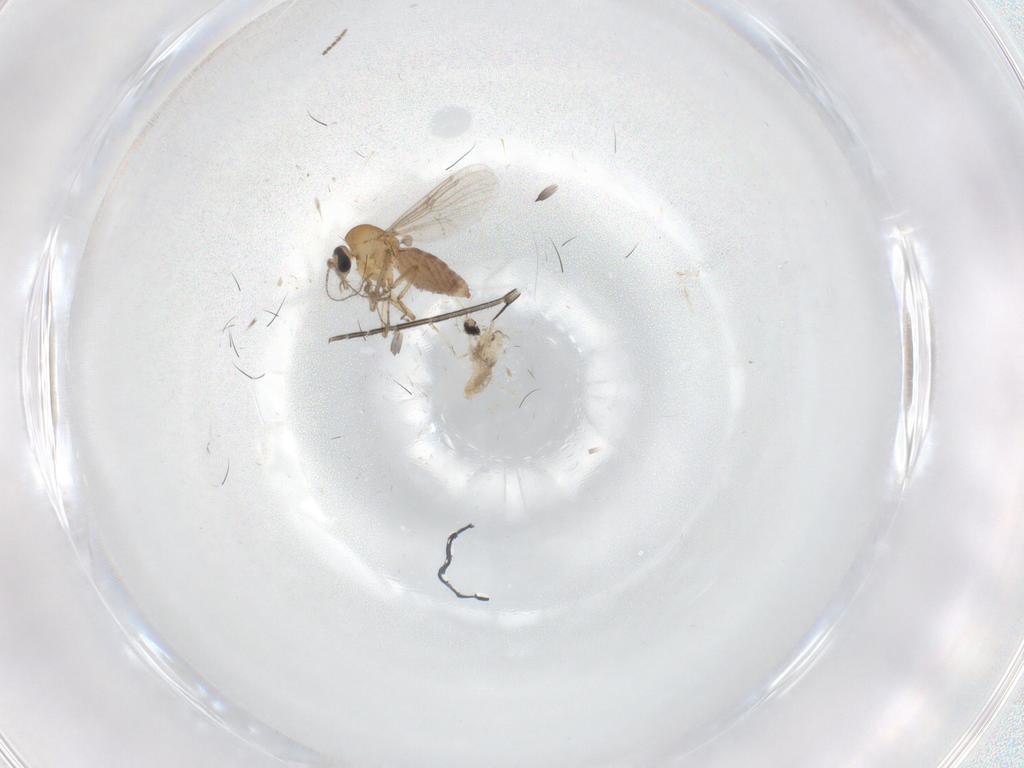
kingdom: Animalia
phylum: Arthropoda
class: Insecta
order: Diptera
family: Sciaridae
